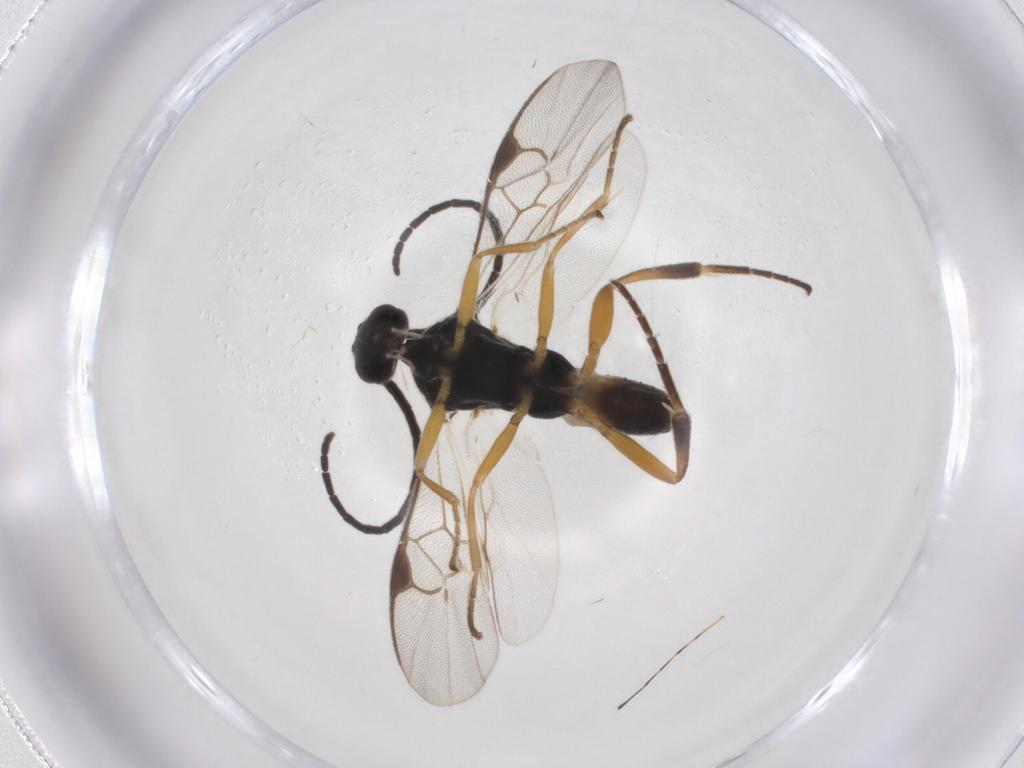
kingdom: Animalia
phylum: Arthropoda
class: Insecta
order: Hymenoptera
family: Braconidae
